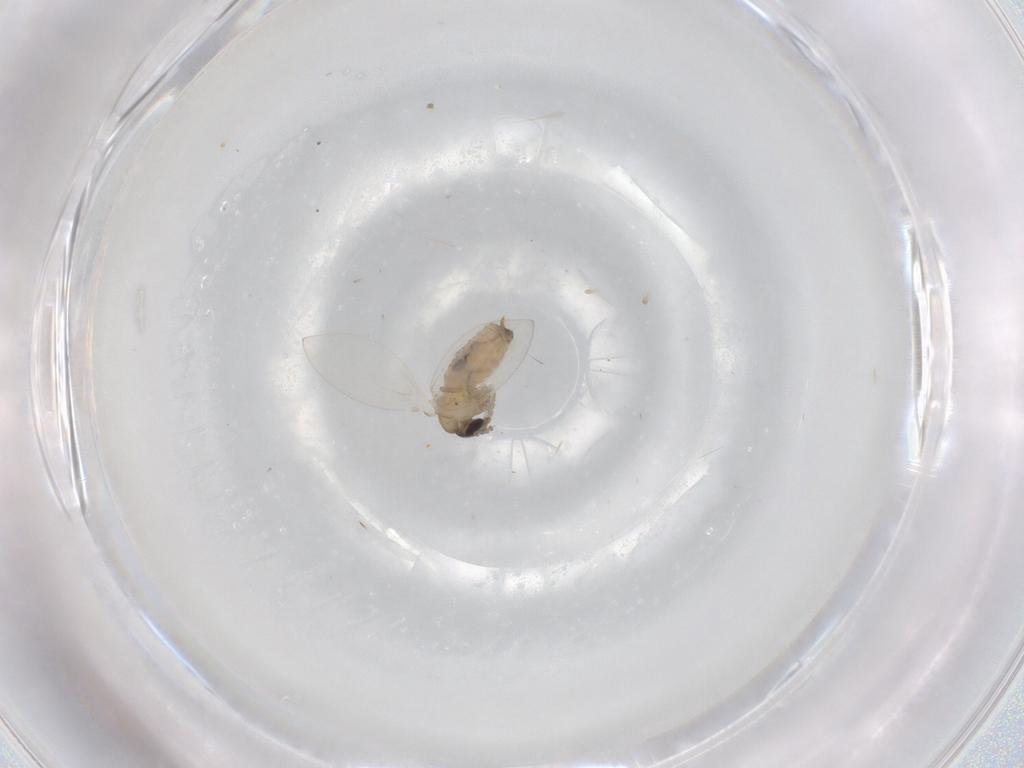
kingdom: Animalia
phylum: Arthropoda
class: Insecta
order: Diptera
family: Psychodidae
